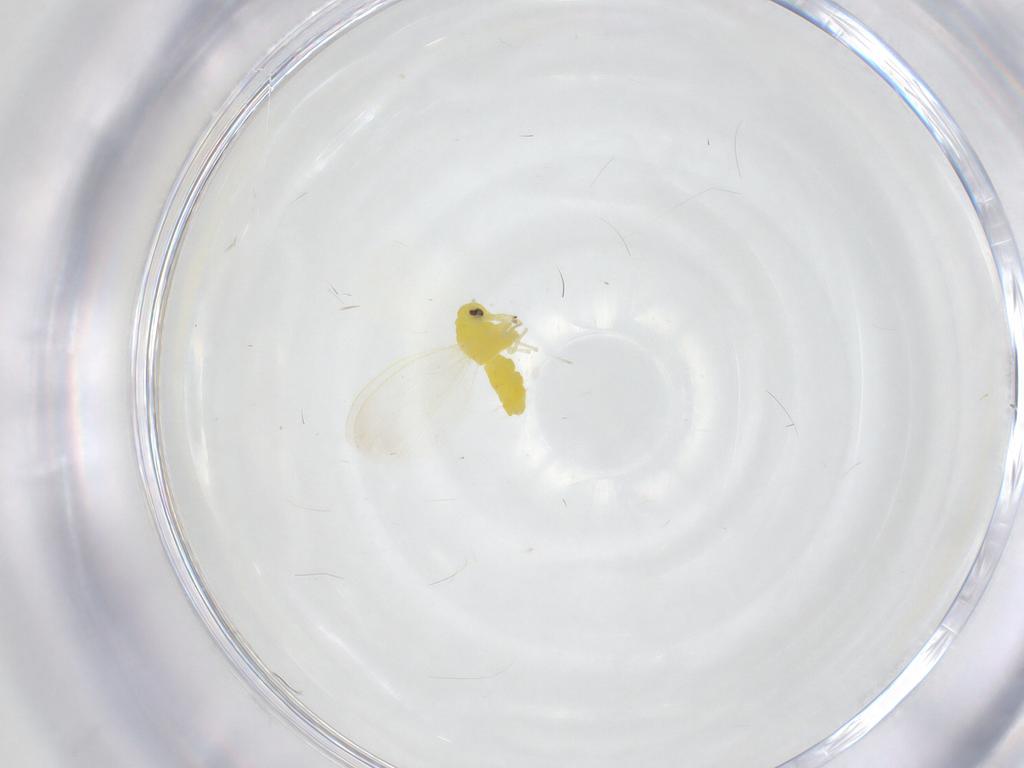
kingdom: Animalia
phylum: Arthropoda
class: Insecta
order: Hemiptera
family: Aleyrodidae
